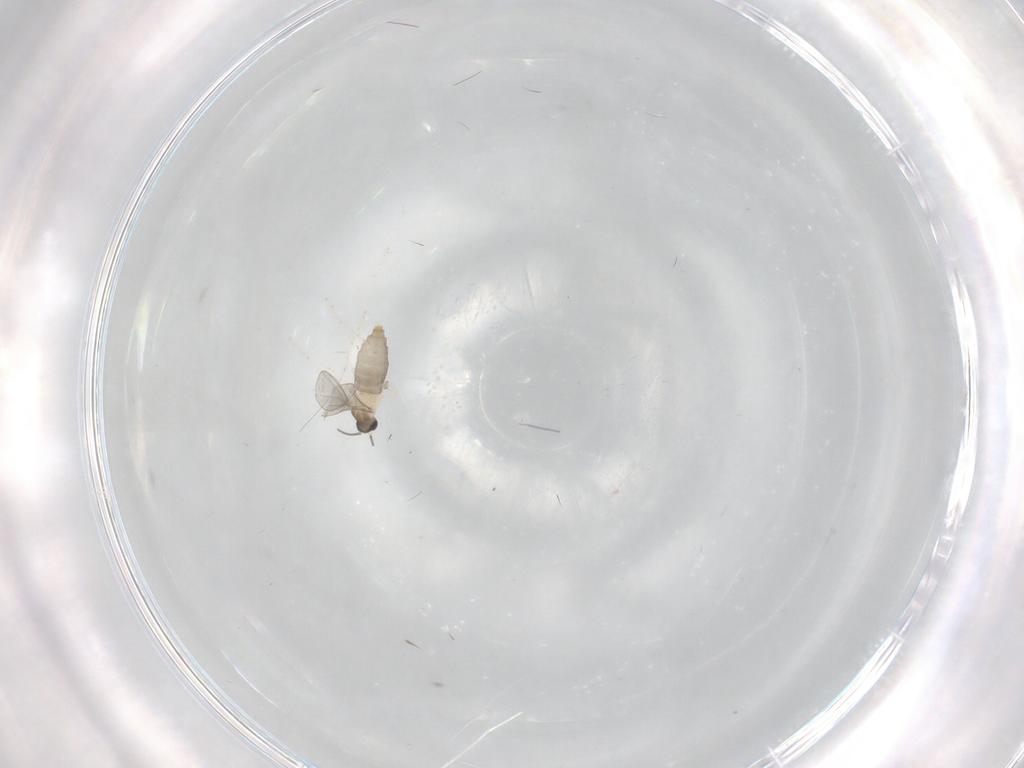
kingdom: Animalia
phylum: Arthropoda
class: Insecta
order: Diptera
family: Cecidomyiidae
